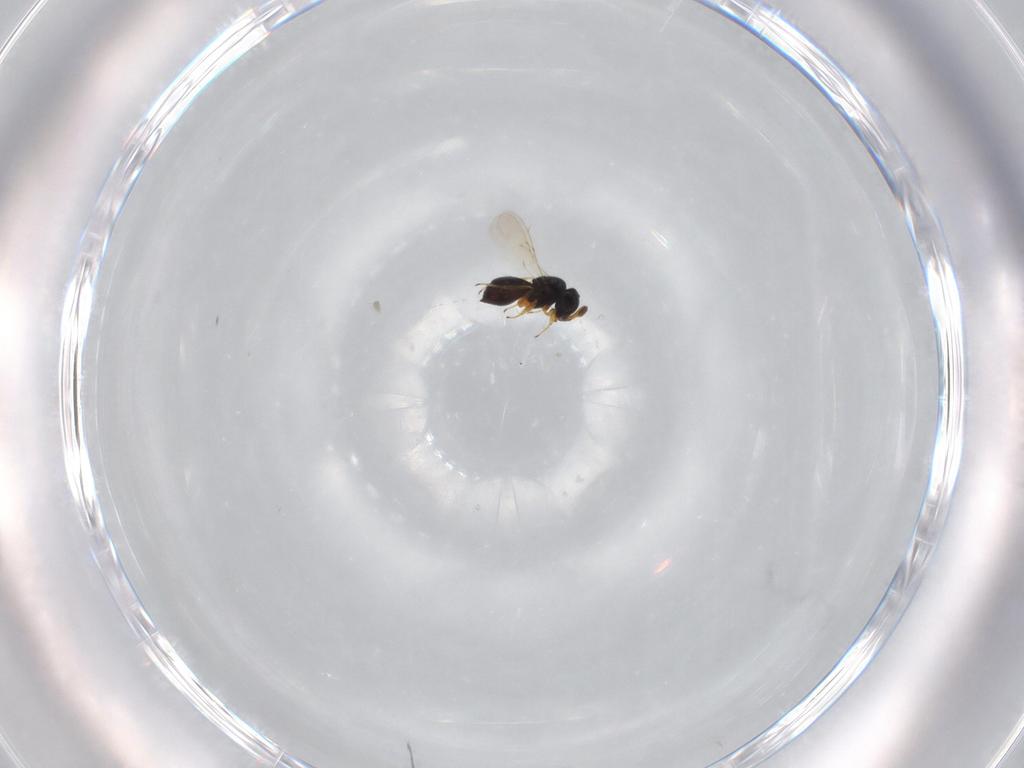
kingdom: Animalia
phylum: Arthropoda
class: Insecta
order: Hymenoptera
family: Scelionidae
